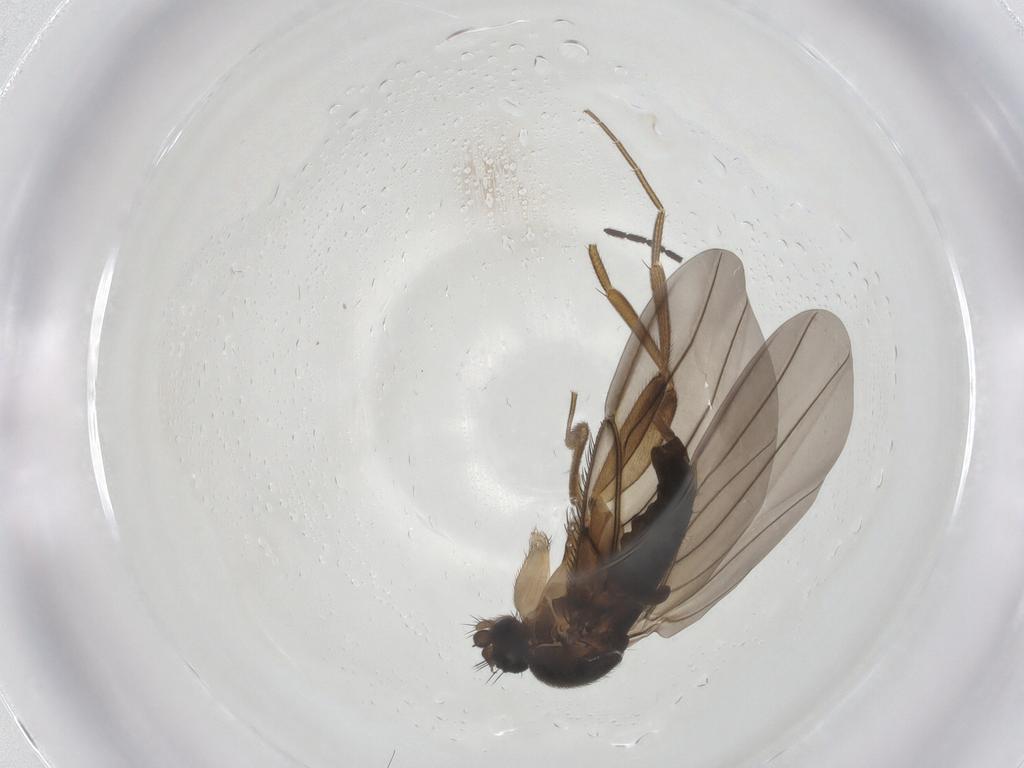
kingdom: Animalia
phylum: Arthropoda
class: Insecta
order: Diptera
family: Phoridae
